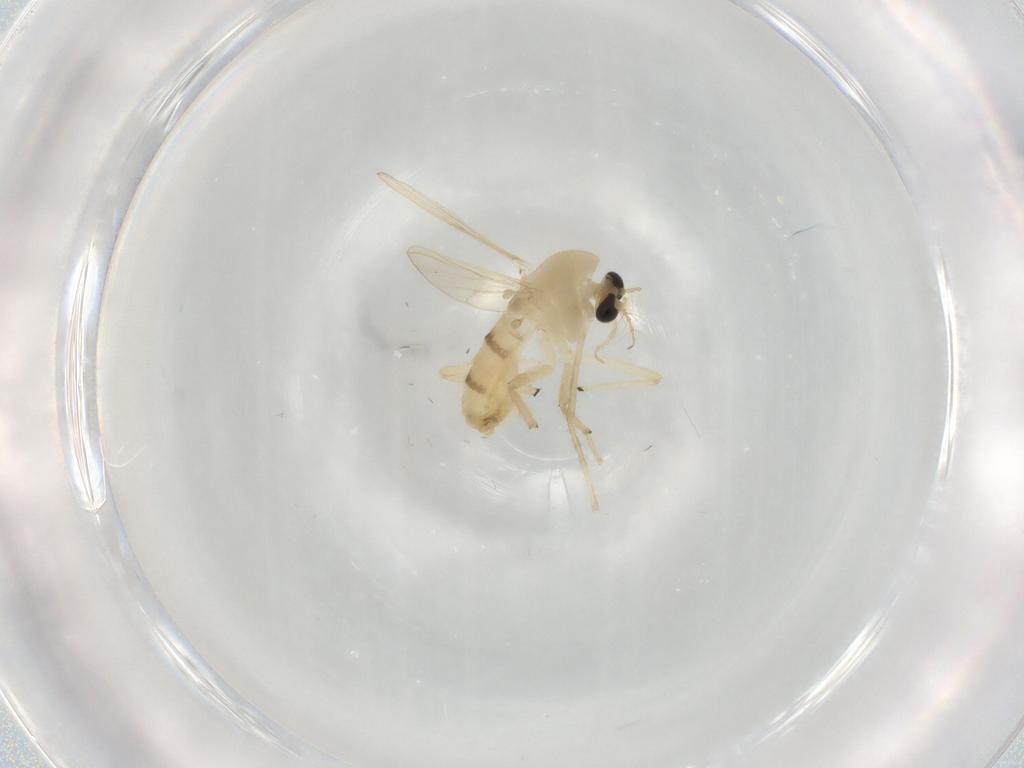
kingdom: Animalia
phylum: Arthropoda
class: Insecta
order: Diptera
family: Chironomidae
